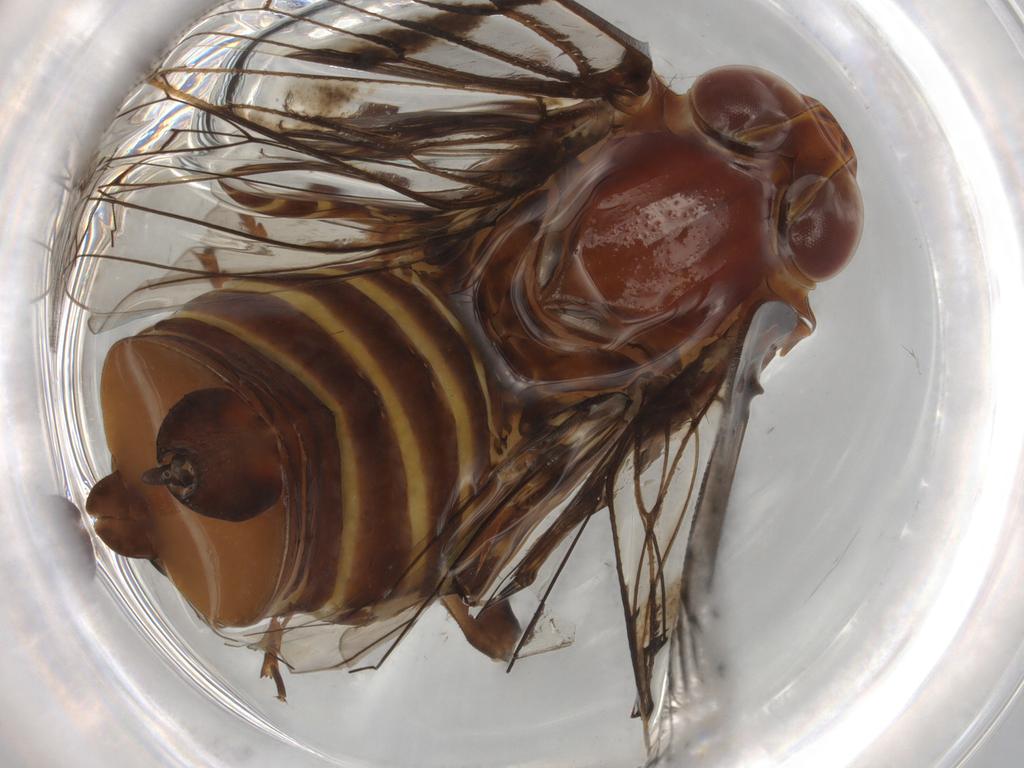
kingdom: Animalia
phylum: Arthropoda
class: Insecta
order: Hemiptera
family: Cixiidae
